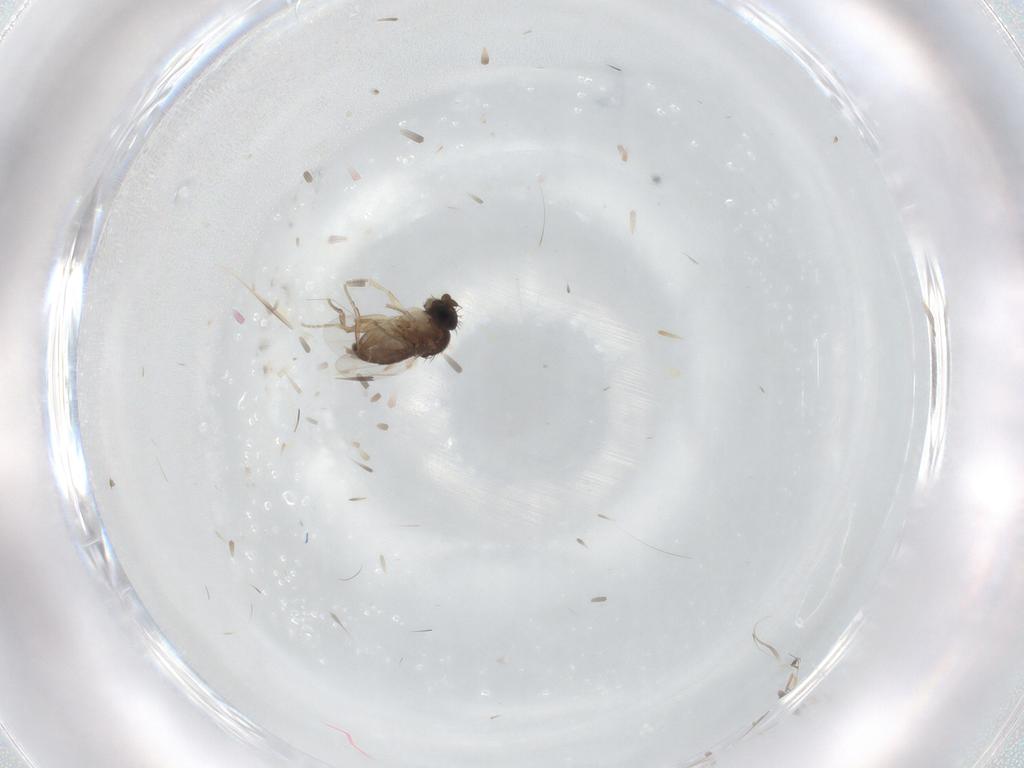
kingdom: Animalia
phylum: Arthropoda
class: Insecta
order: Diptera
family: Phoridae
